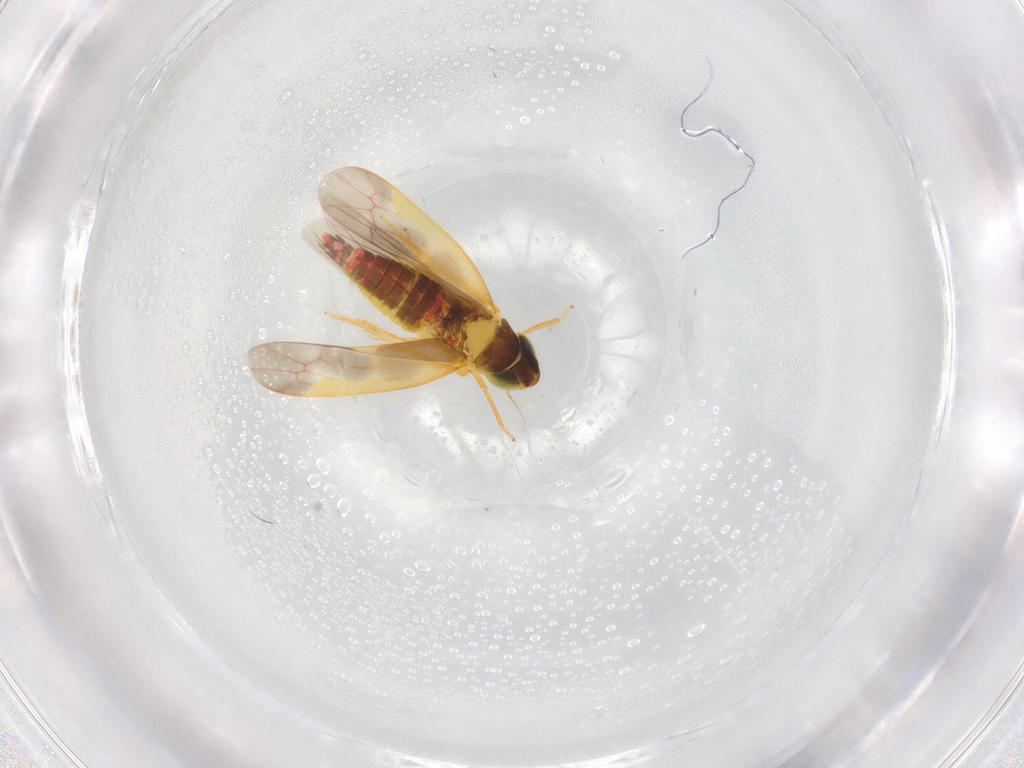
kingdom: Animalia
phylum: Arthropoda
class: Insecta
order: Hemiptera
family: Cicadellidae
